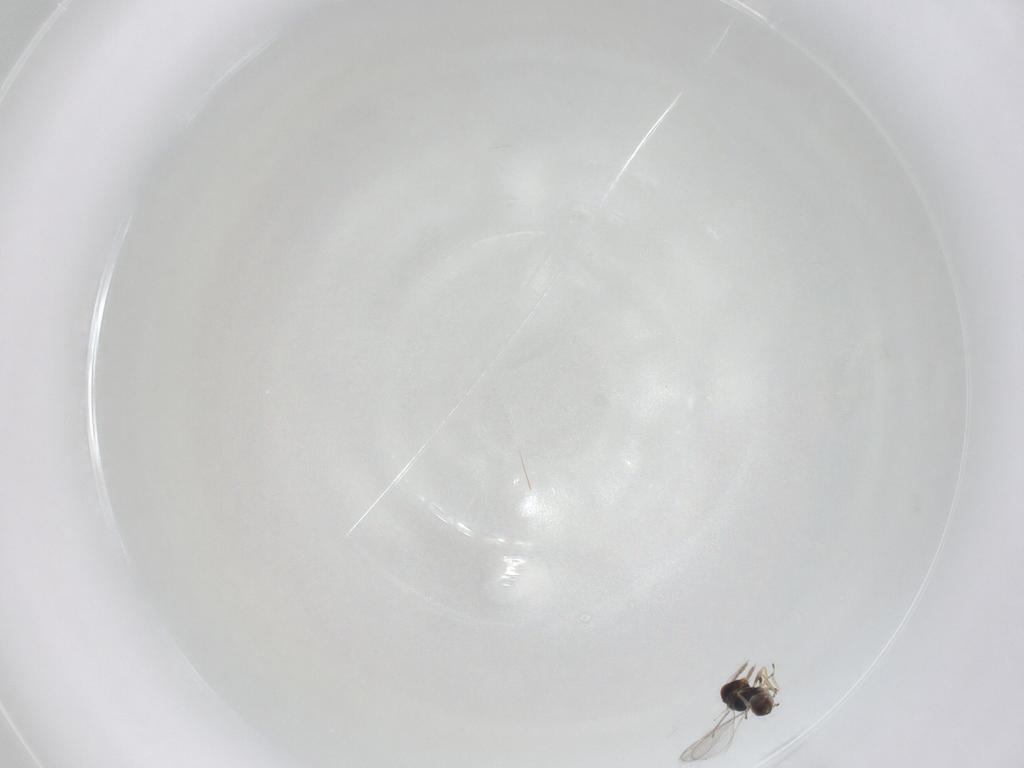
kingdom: Animalia
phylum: Arthropoda
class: Insecta
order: Hymenoptera
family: Eulophidae
